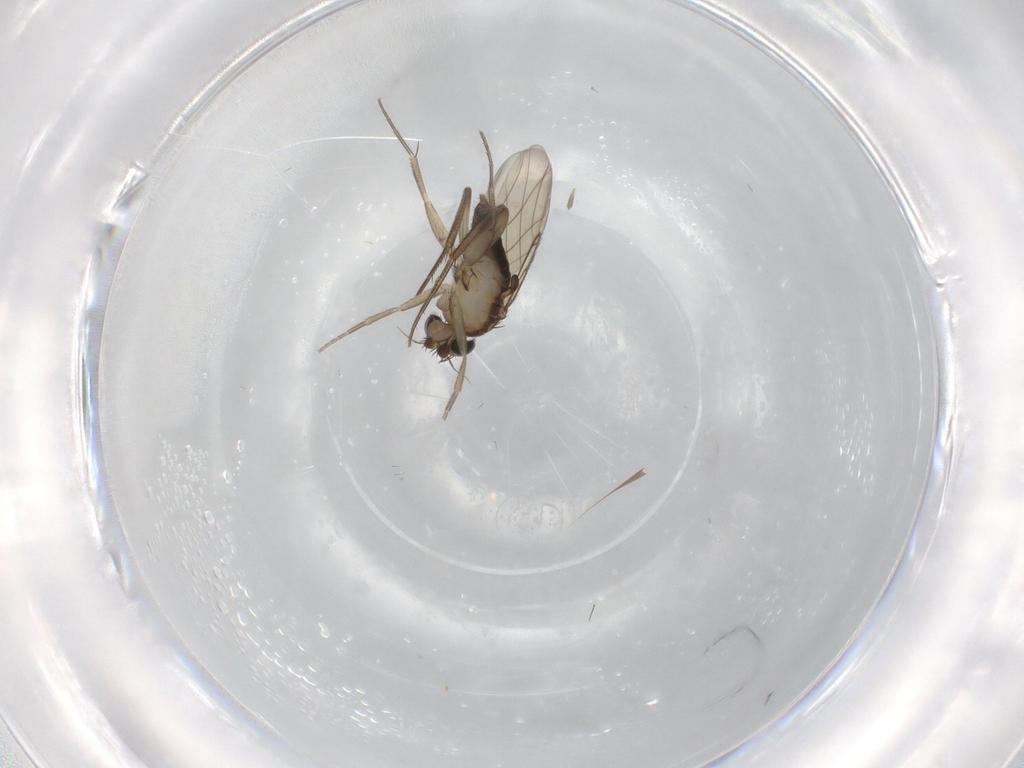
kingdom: Animalia
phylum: Arthropoda
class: Insecta
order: Diptera
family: Phoridae
